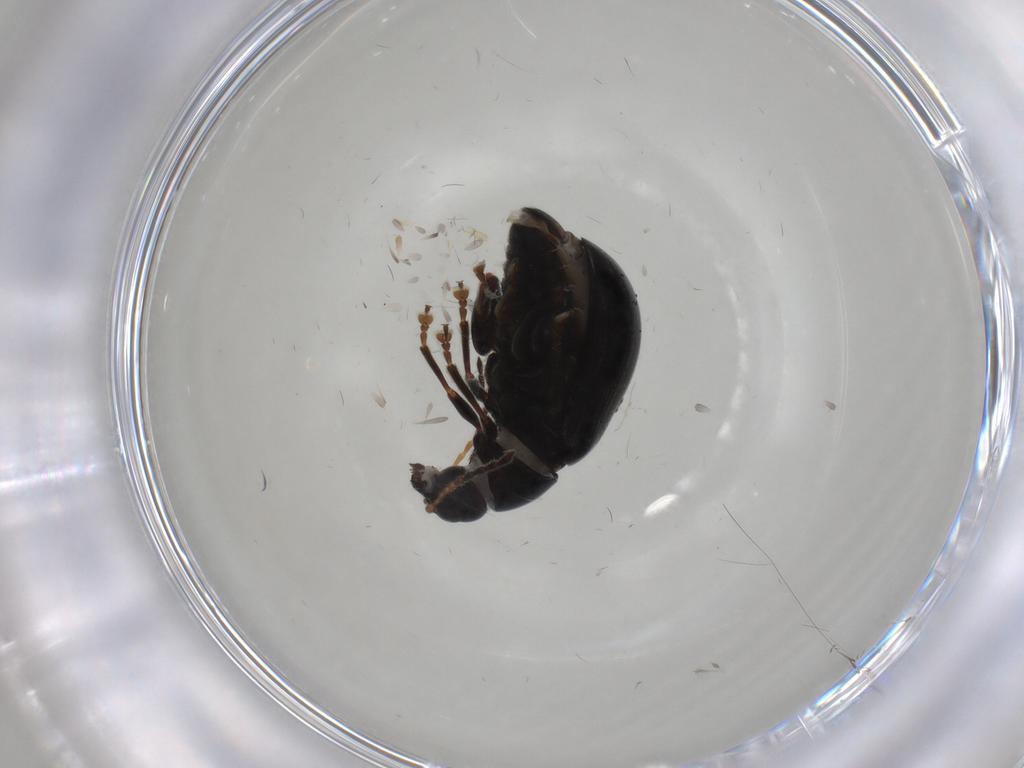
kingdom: Animalia
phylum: Arthropoda
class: Insecta
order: Coleoptera
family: Chrysomelidae
